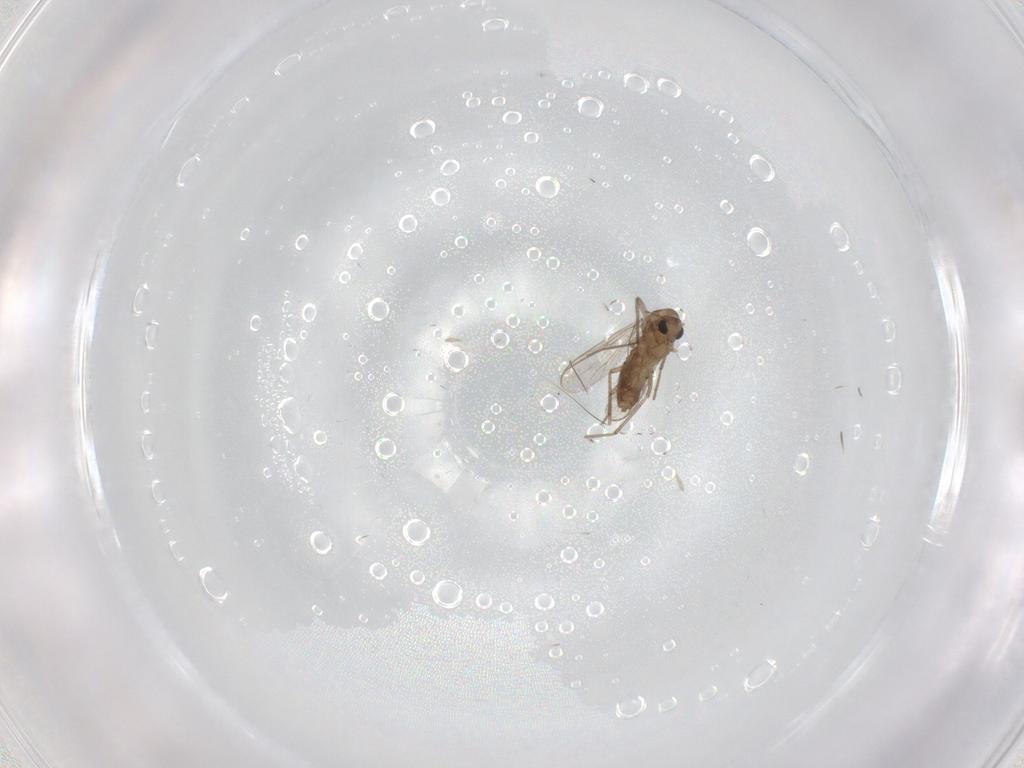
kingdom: Animalia
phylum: Arthropoda
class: Insecta
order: Diptera
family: Chironomidae
